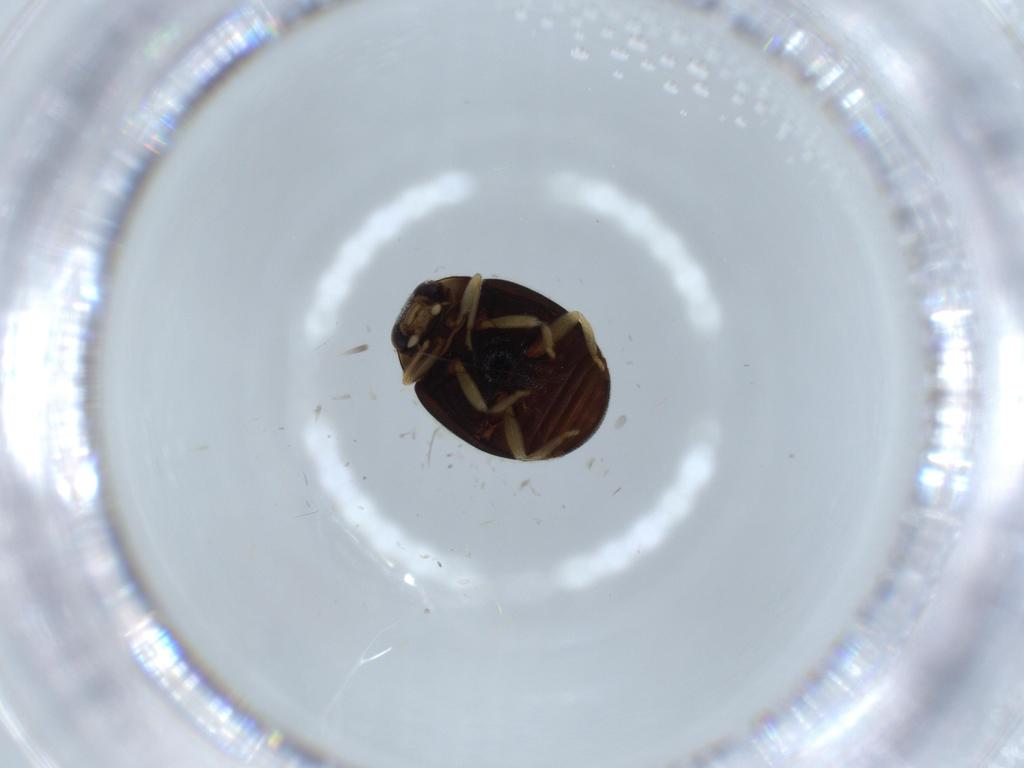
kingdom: Animalia
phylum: Arthropoda
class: Insecta
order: Coleoptera
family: Coccinellidae
